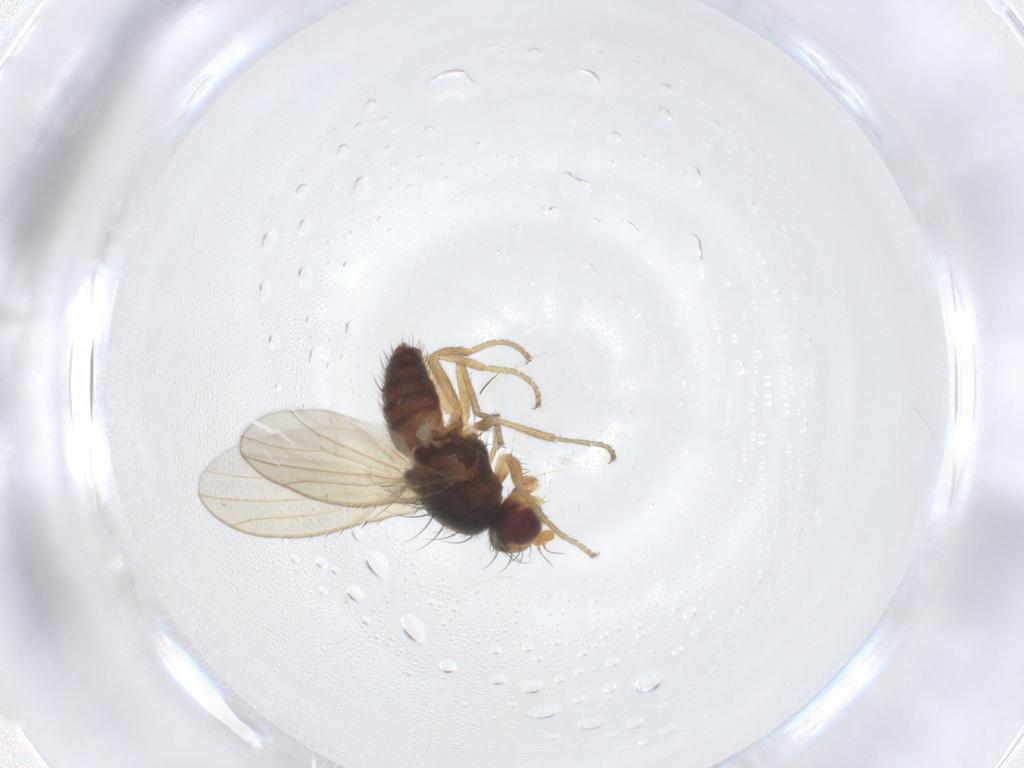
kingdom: Animalia
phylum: Arthropoda
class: Insecta
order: Diptera
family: Heleomyzidae
